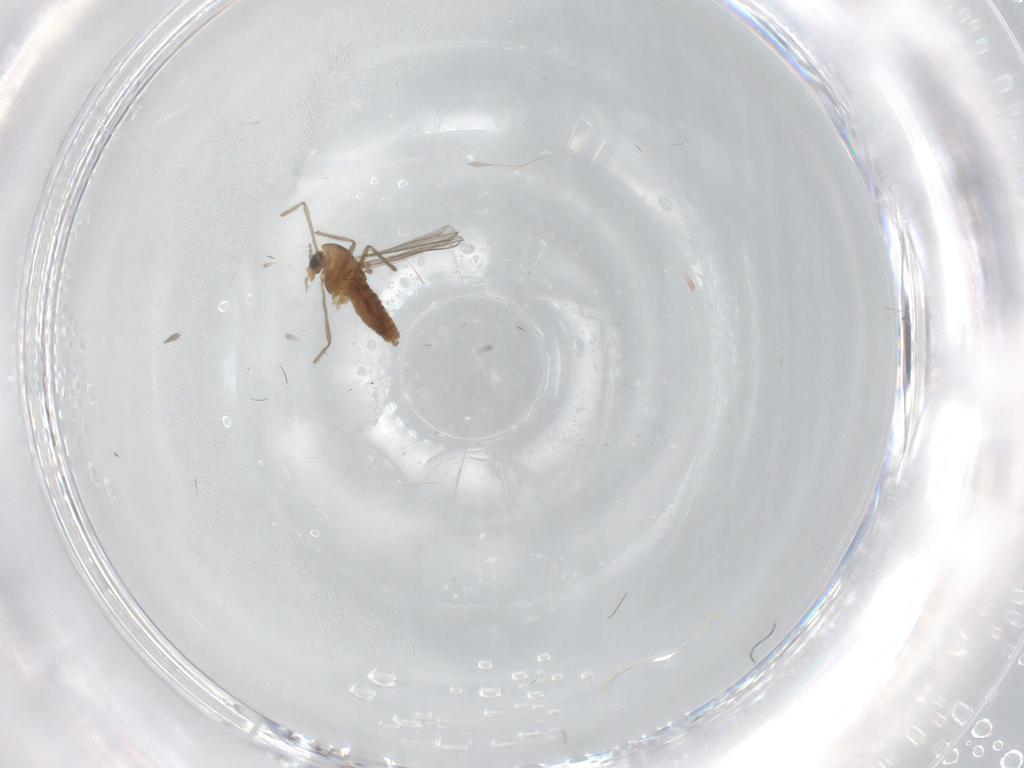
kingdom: Animalia
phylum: Arthropoda
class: Insecta
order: Diptera
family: Chironomidae
